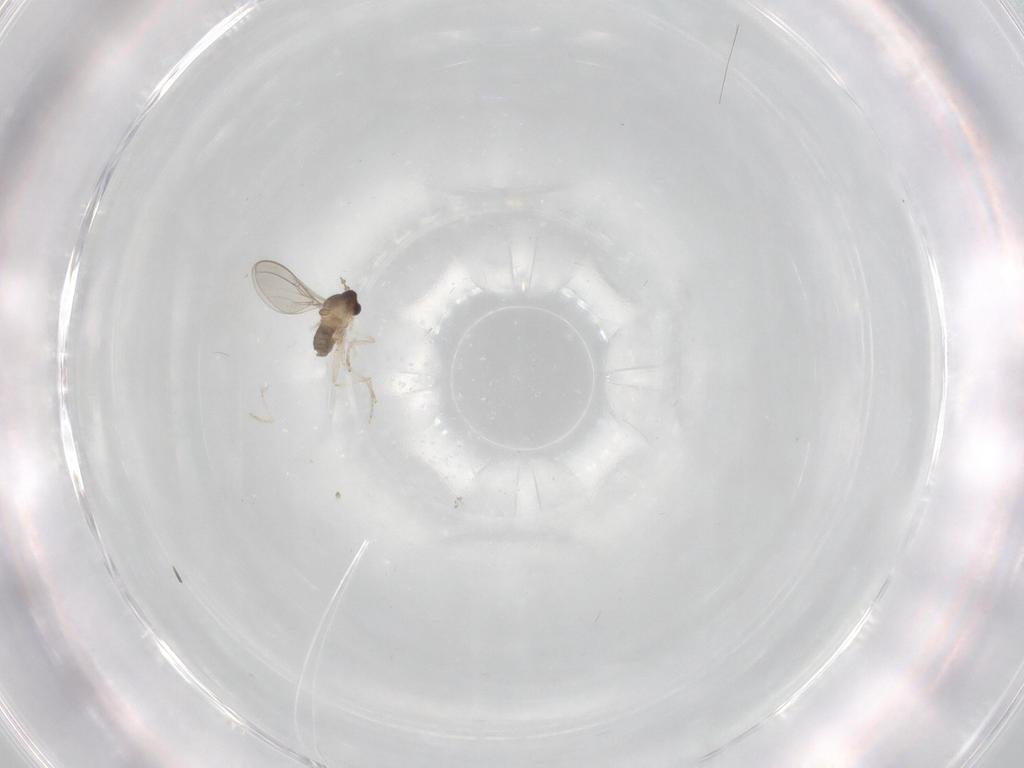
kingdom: Animalia
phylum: Arthropoda
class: Insecta
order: Diptera
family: Cecidomyiidae
